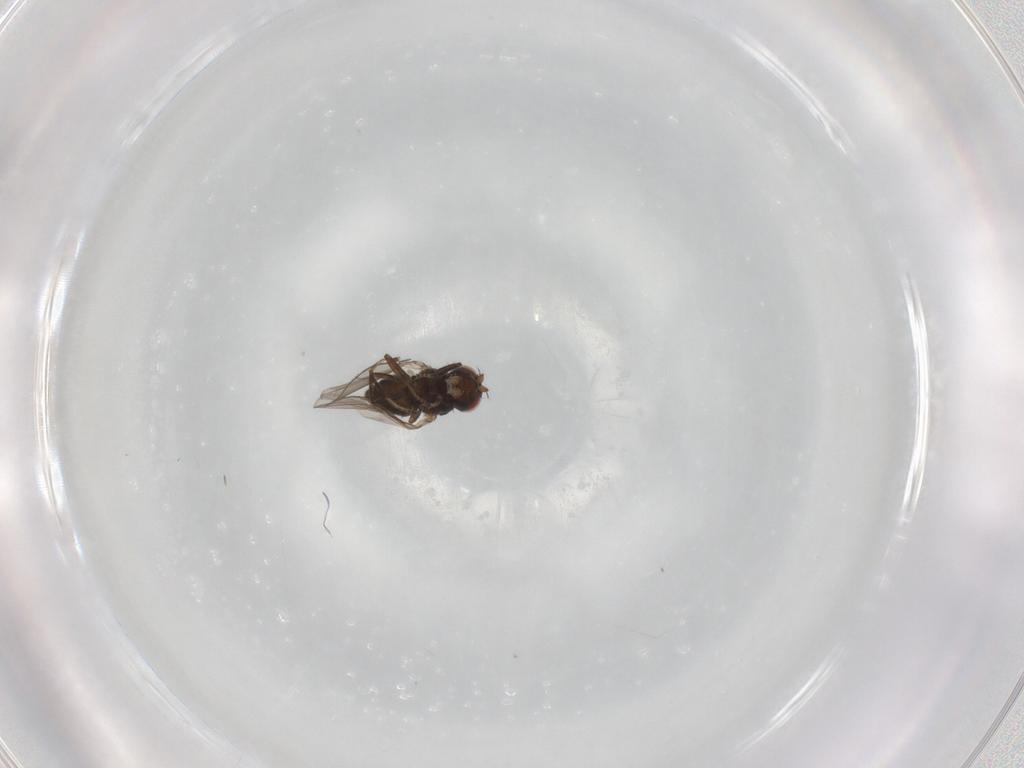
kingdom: Animalia
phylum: Arthropoda
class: Insecta
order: Diptera
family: Ephydridae
